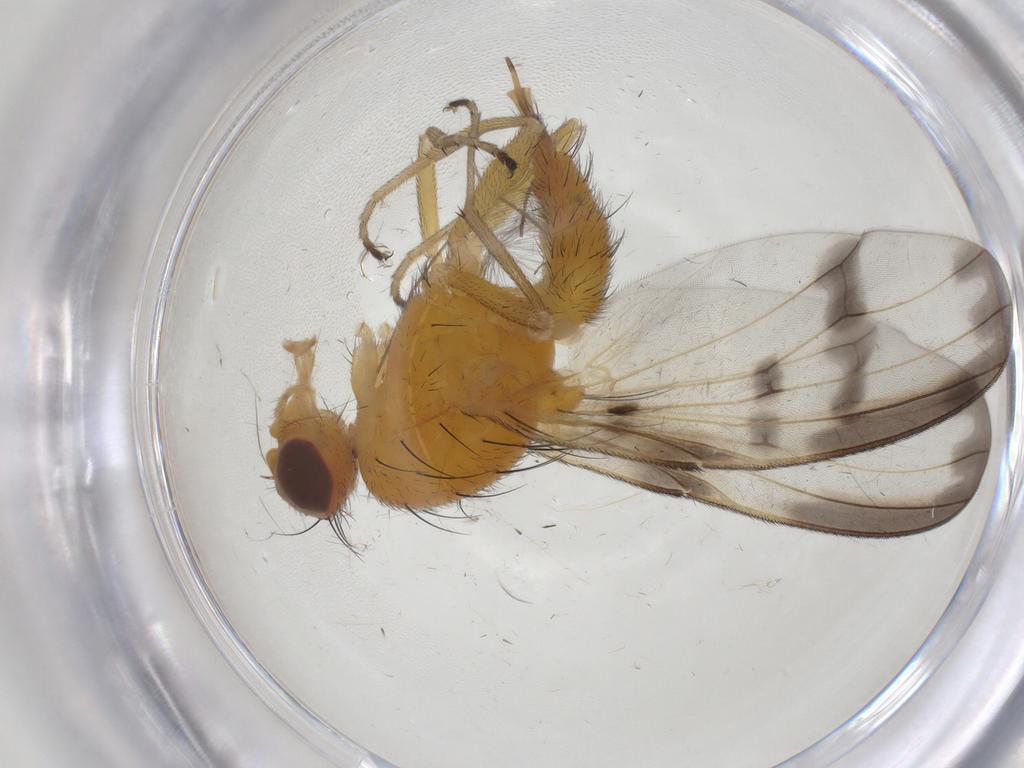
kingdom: Animalia
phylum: Arthropoda
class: Insecta
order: Diptera
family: Pallopteridae
